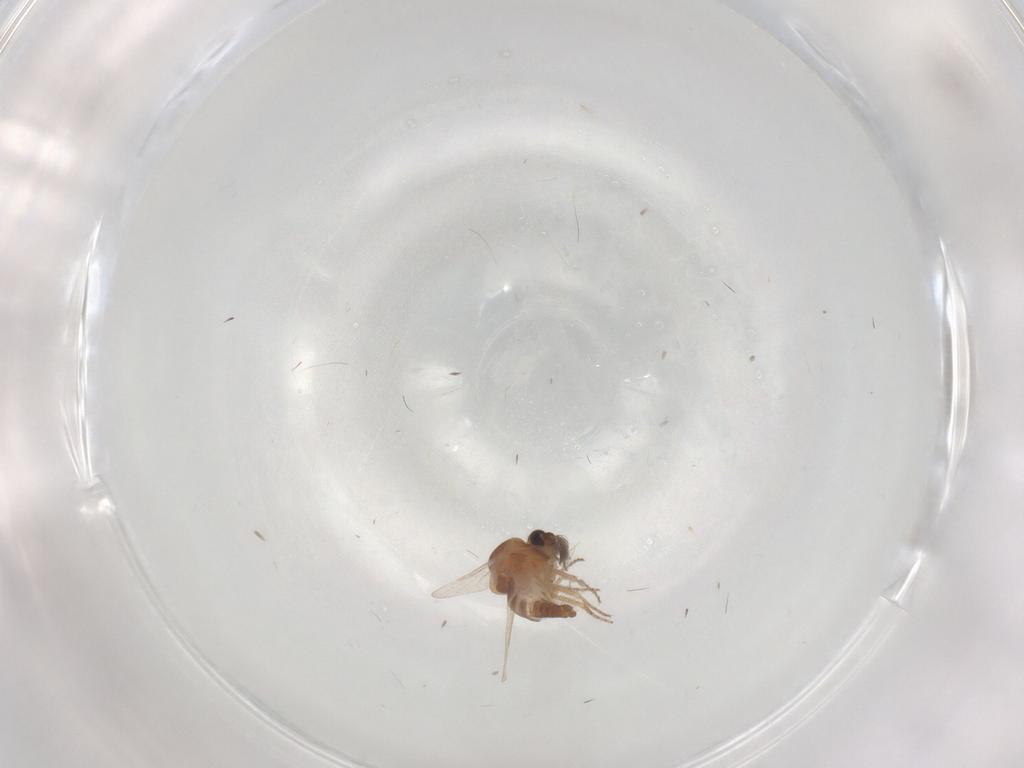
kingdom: Animalia
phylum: Arthropoda
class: Insecta
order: Diptera
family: Ceratopogonidae
